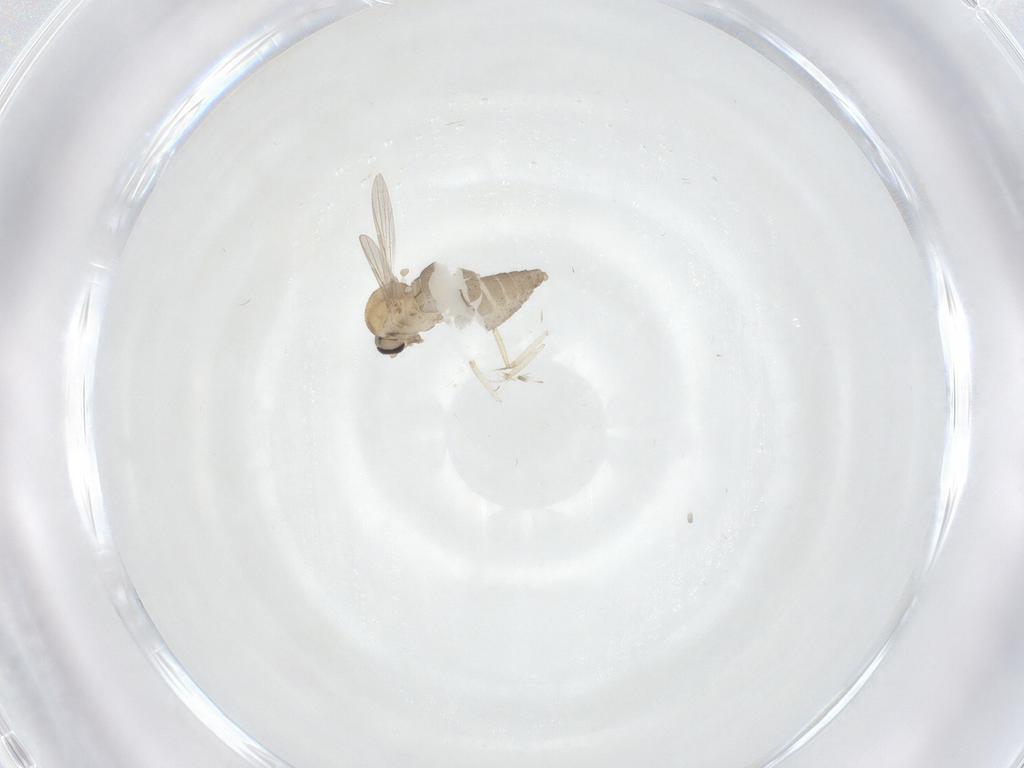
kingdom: Animalia
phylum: Arthropoda
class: Insecta
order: Diptera
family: Ceratopogonidae
